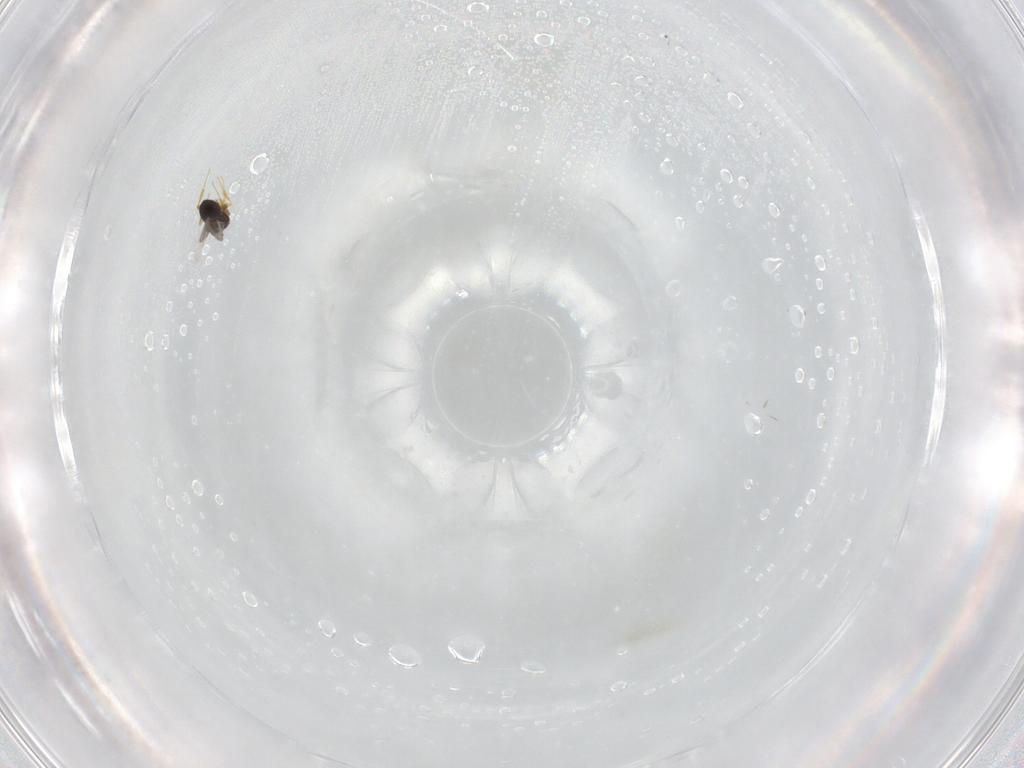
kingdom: Animalia
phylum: Arthropoda
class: Insecta
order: Hymenoptera
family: Platygastridae
